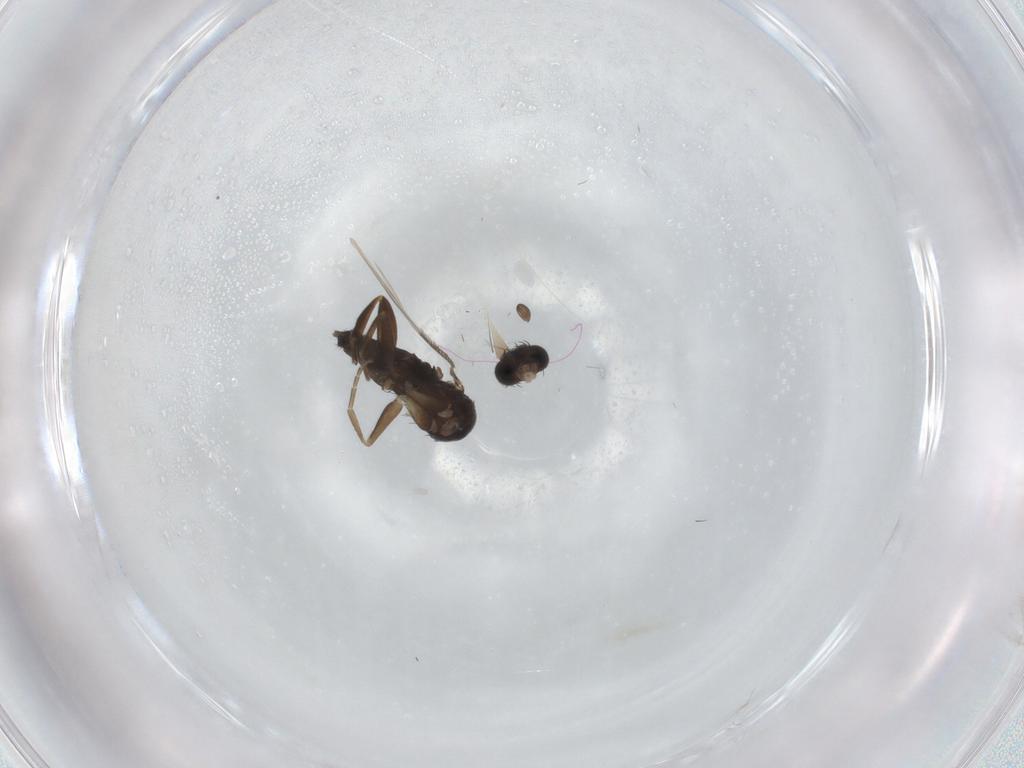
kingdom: Animalia
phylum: Arthropoda
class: Insecta
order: Diptera
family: Phoridae
